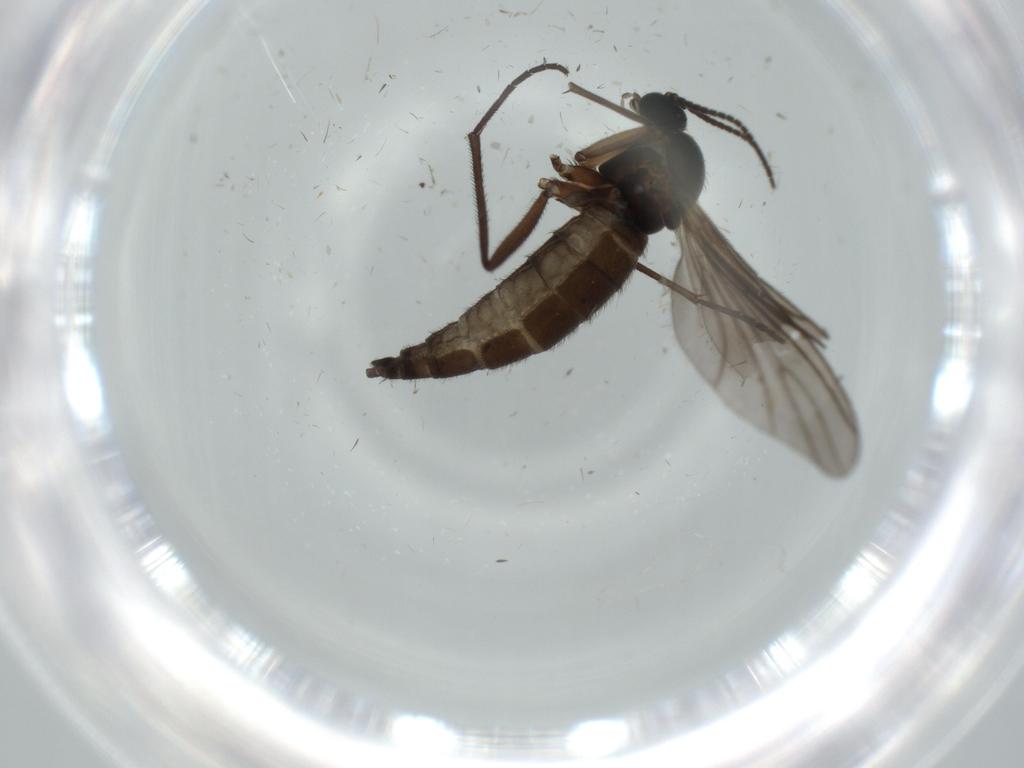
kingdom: Animalia
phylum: Arthropoda
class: Insecta
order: Diptera
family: Sciaridae
